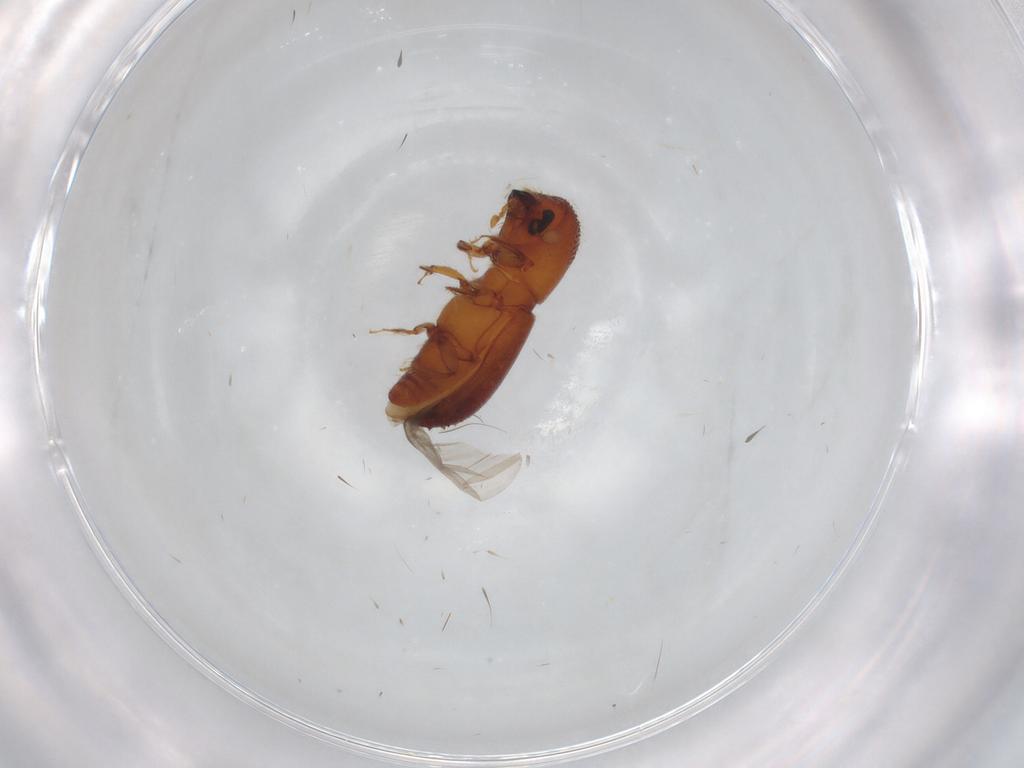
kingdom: Animalia
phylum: Arthropoda
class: Insecta
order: Coleoptera
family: Curculionidae
